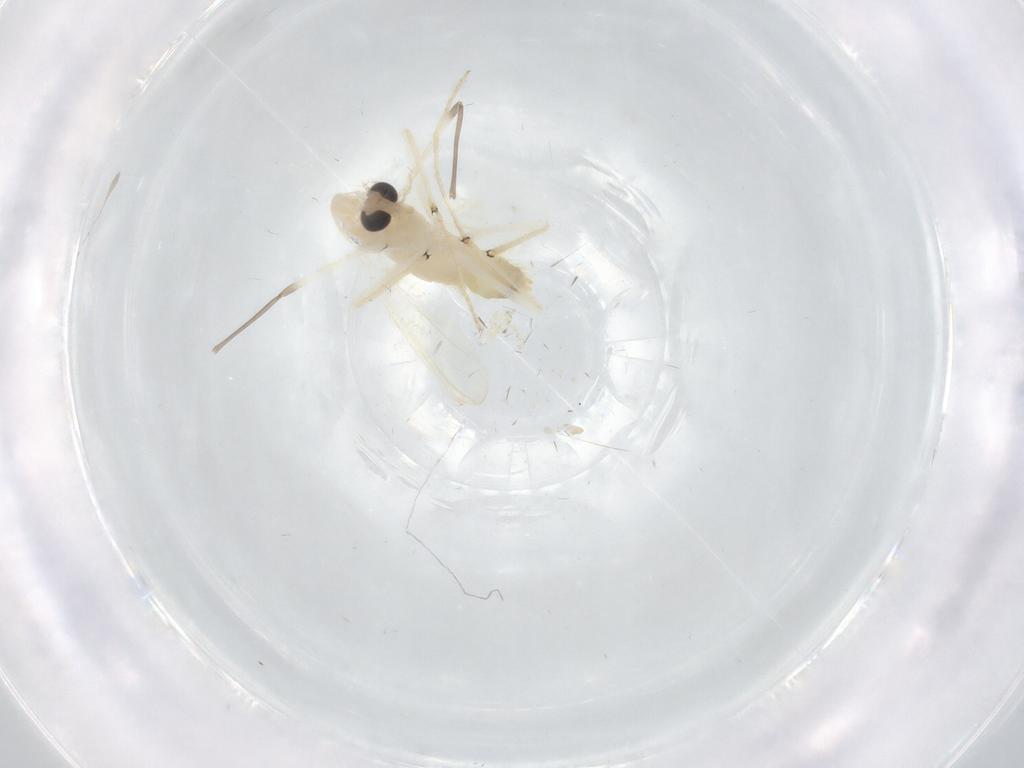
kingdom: Animalia
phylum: Arthropoda
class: Insecta
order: Diptera
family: Chironomidae
